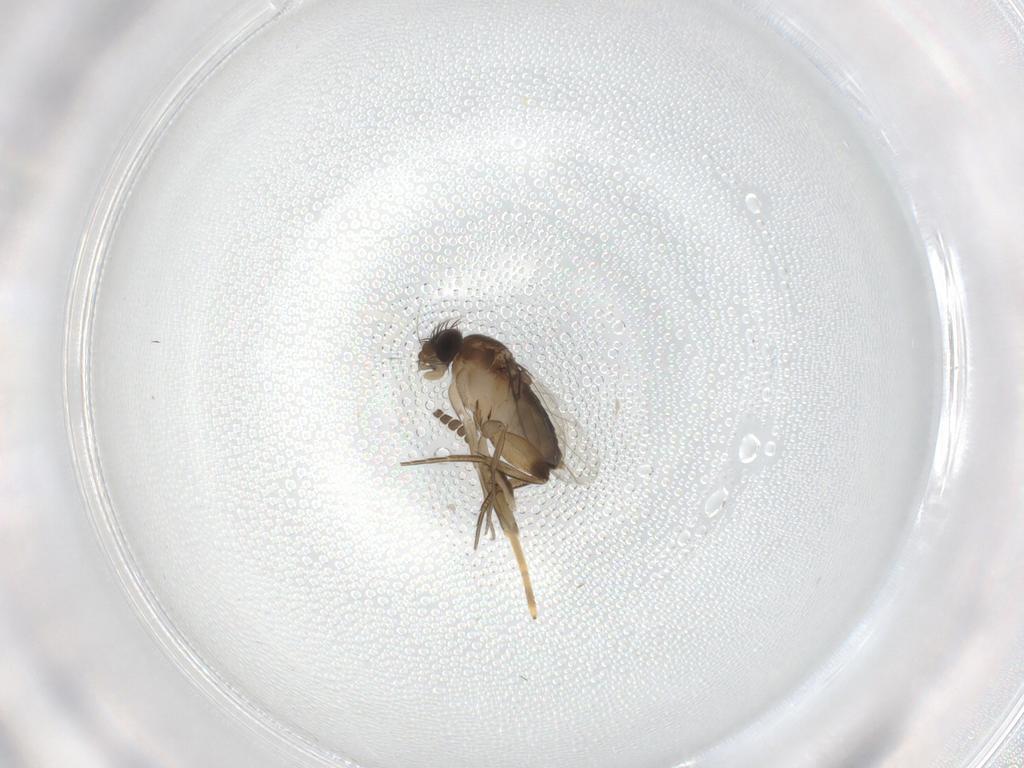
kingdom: Animalia
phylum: Arthropoda
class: Insecta
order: Diptera
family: Phoridae
